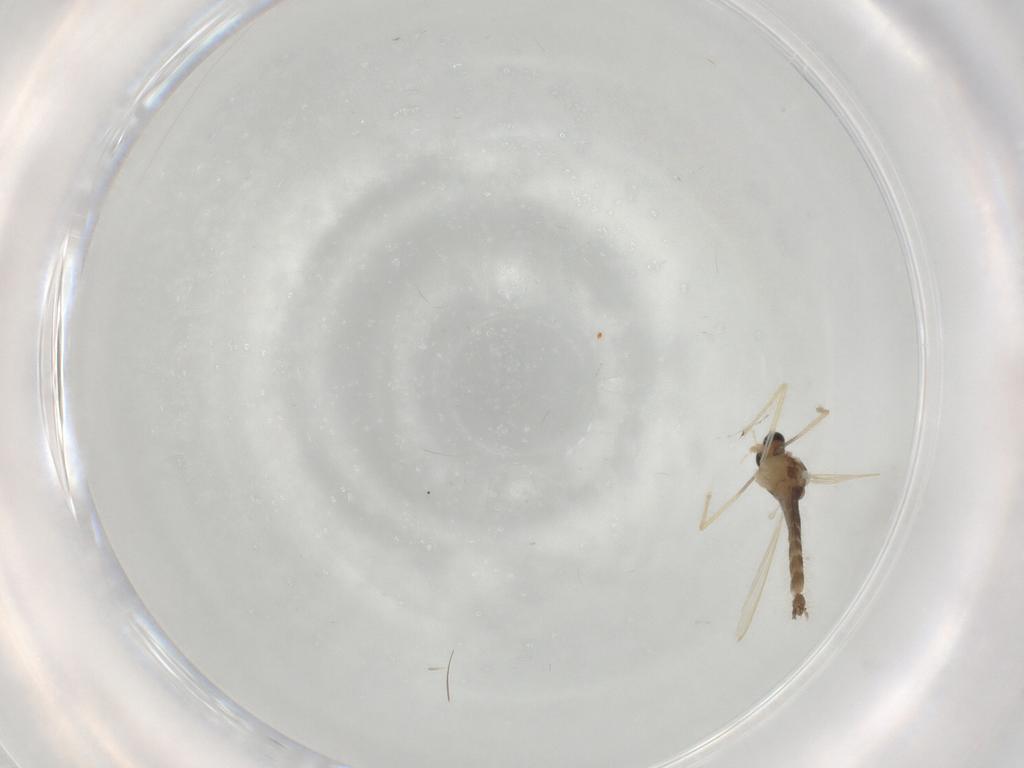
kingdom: Animalia
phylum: Arthropoda
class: Insecta
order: Diptera
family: Chironomidae
